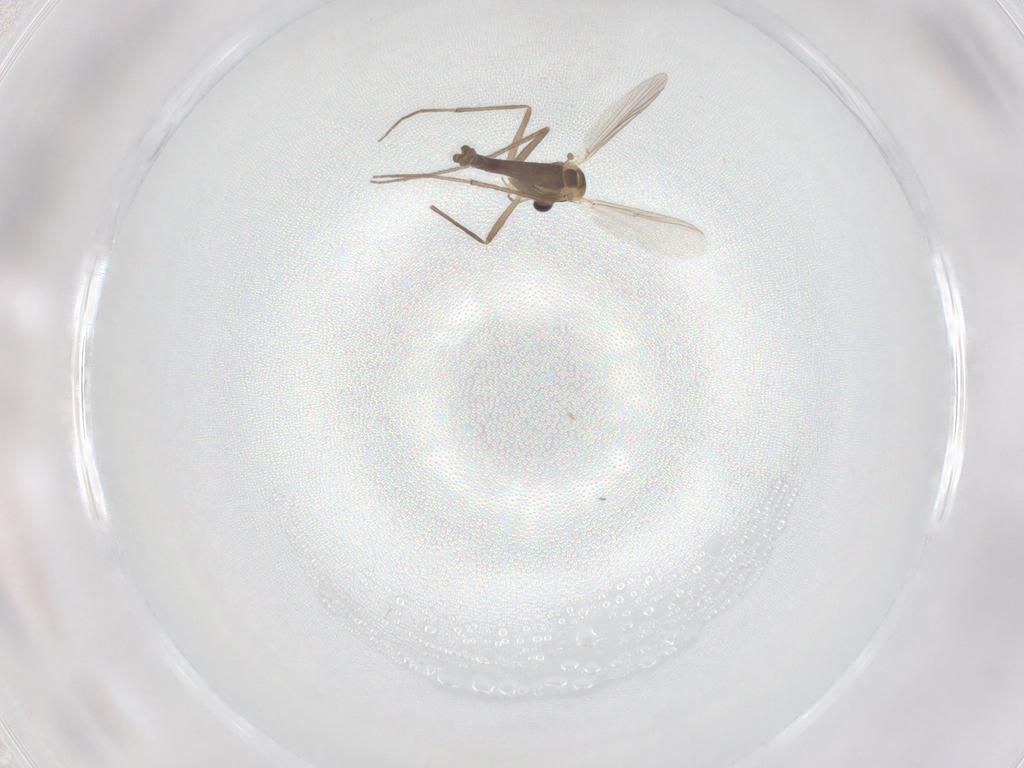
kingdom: Animalia
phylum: Arthropoda
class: Insecta
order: Diptera
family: Chironomidae
